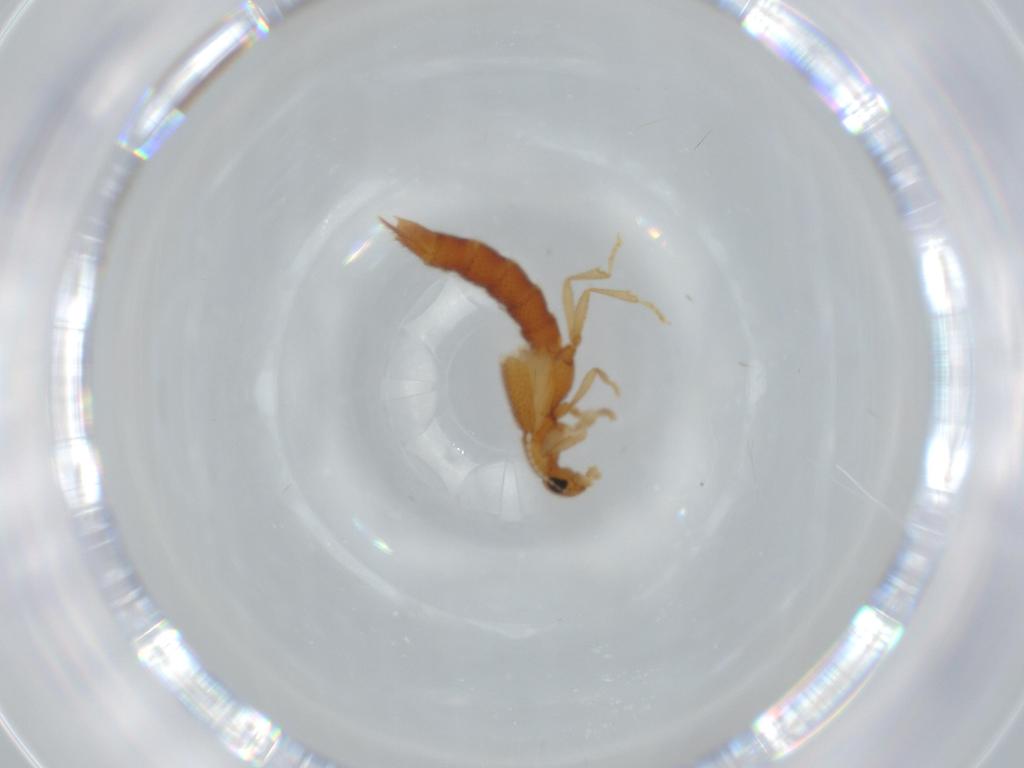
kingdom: Animalia
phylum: Arthropoda
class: Insecta
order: Coleoptera
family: Staphylinidae
